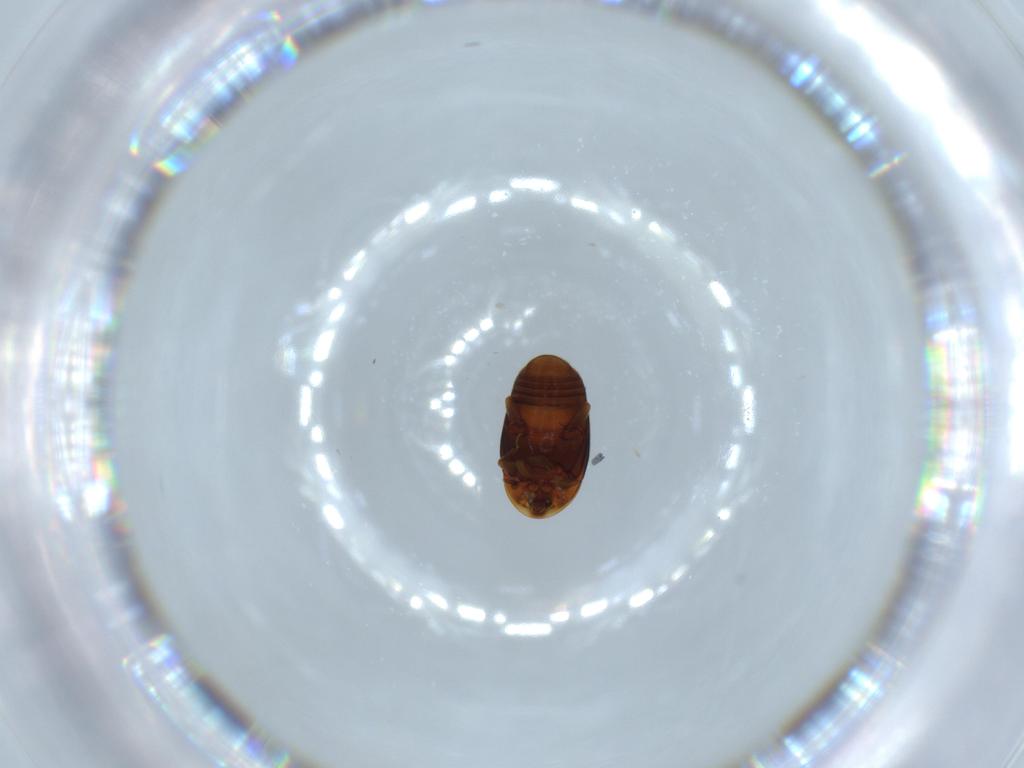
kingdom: Animalia
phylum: Arthropoda
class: Insecta
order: Coleoptera
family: Corylophidae
